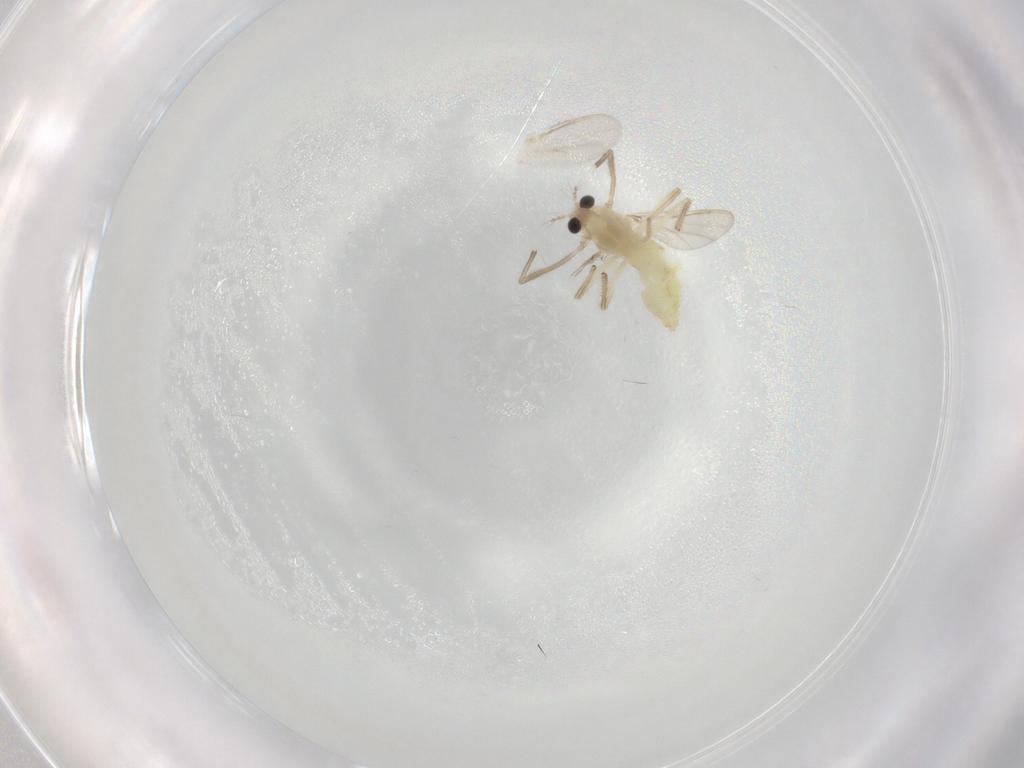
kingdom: Animalia
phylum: Arthropoda
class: Insecta
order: Diptera
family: Chironomidae
